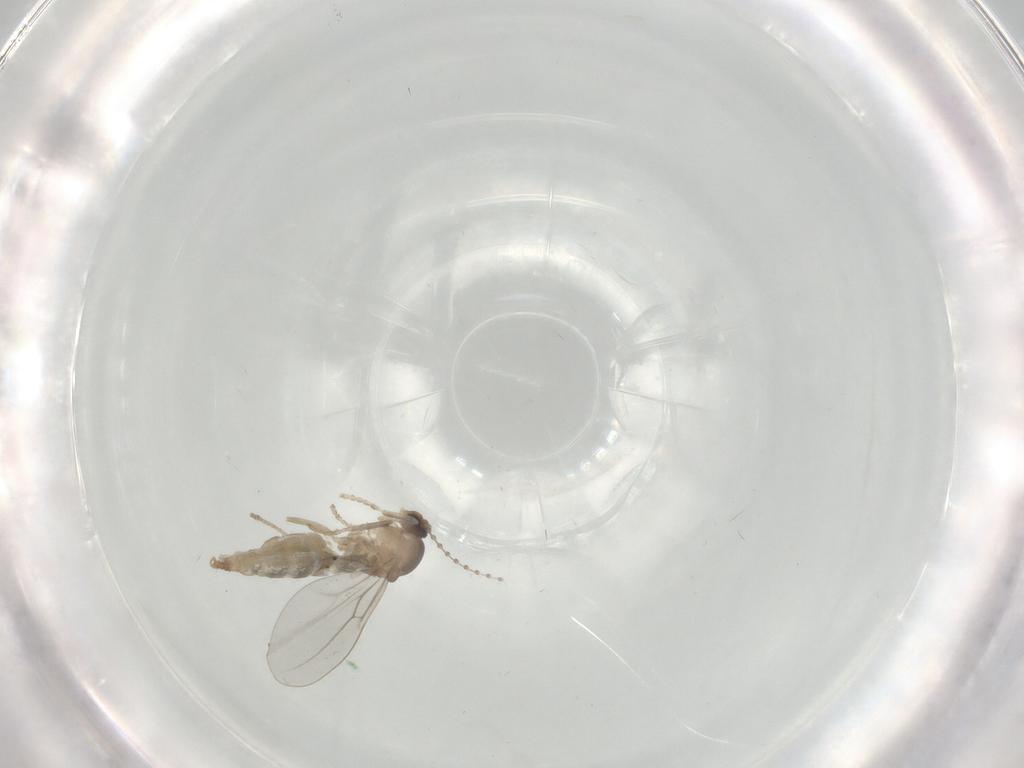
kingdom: Animalia
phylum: Arthropoda
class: Insecta
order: Diptera
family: Cecidomyiidae
